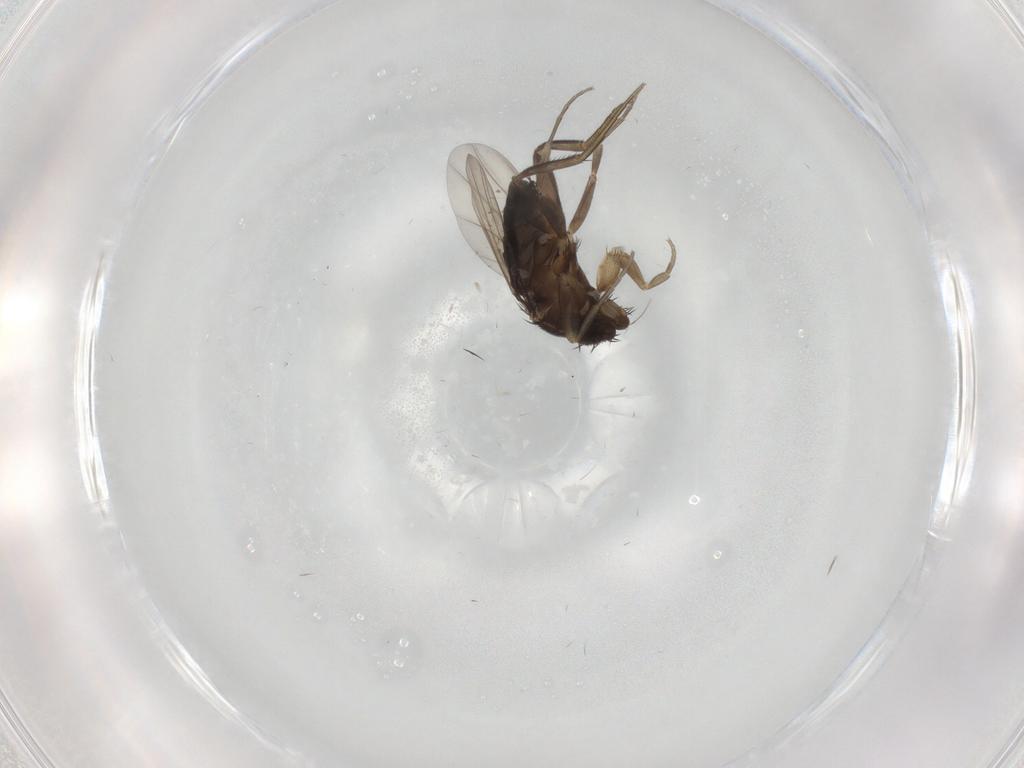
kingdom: Animalia
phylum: Arthropoda
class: Insecta
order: Diptera
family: Phoridae
